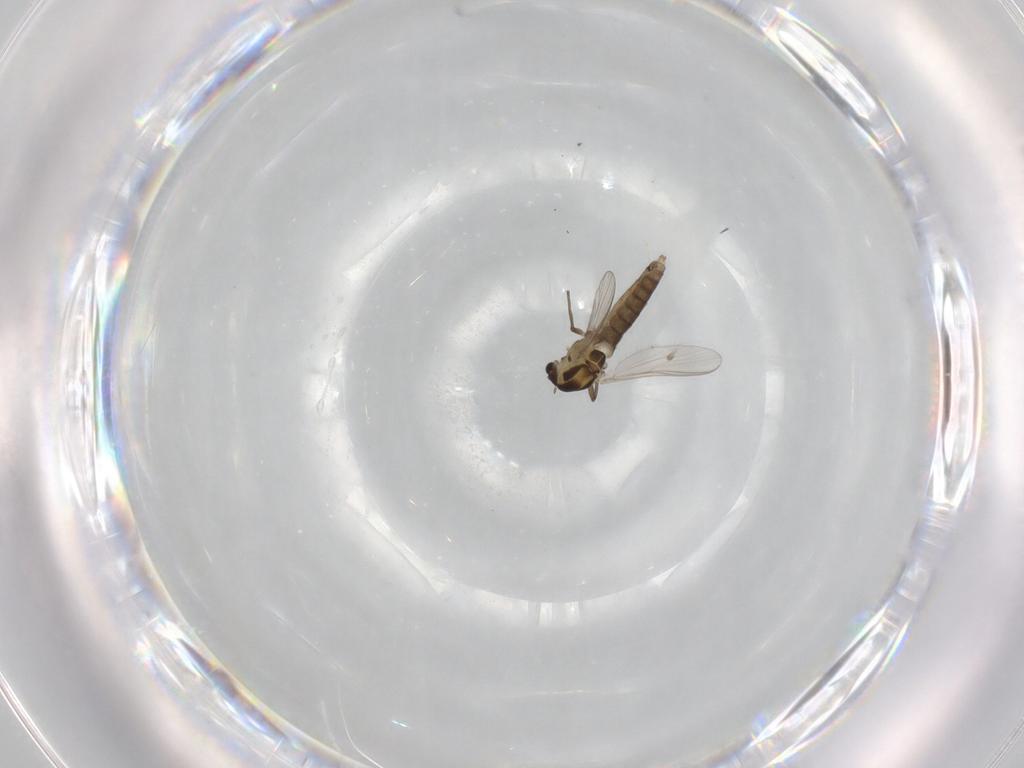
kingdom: Animalia
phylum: Arthropoda
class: Insecta
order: Diptera
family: Chironomidae
